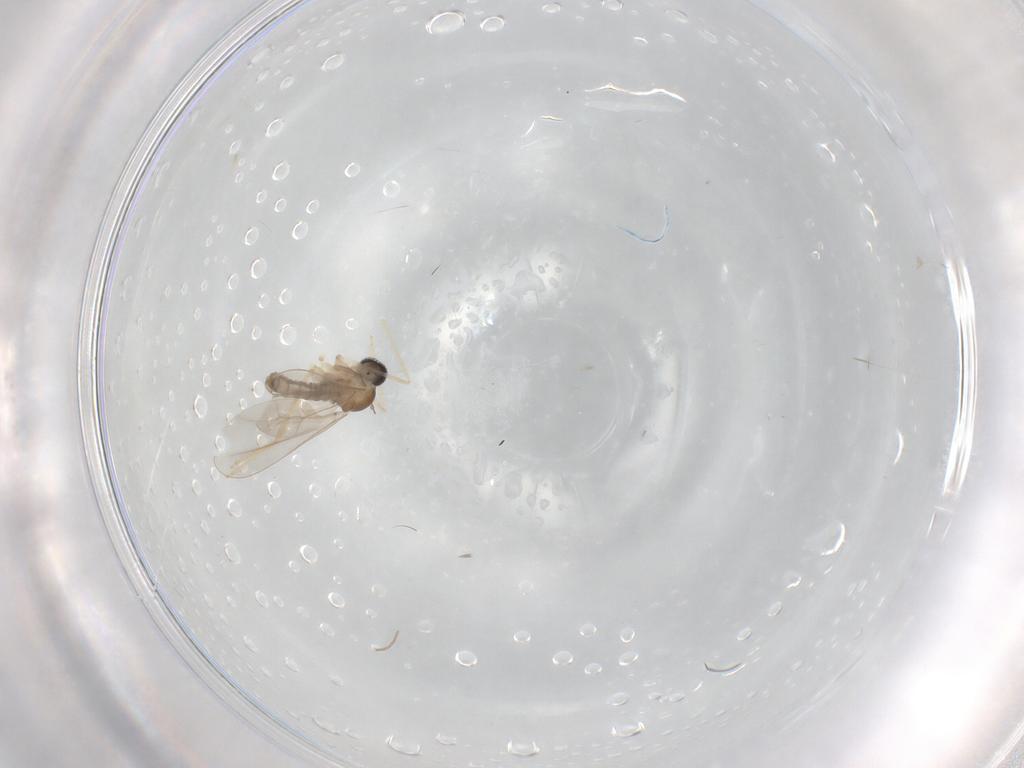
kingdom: Animalia
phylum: Arthropoda
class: Insecta
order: Diptera
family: Cecidomyiidae
